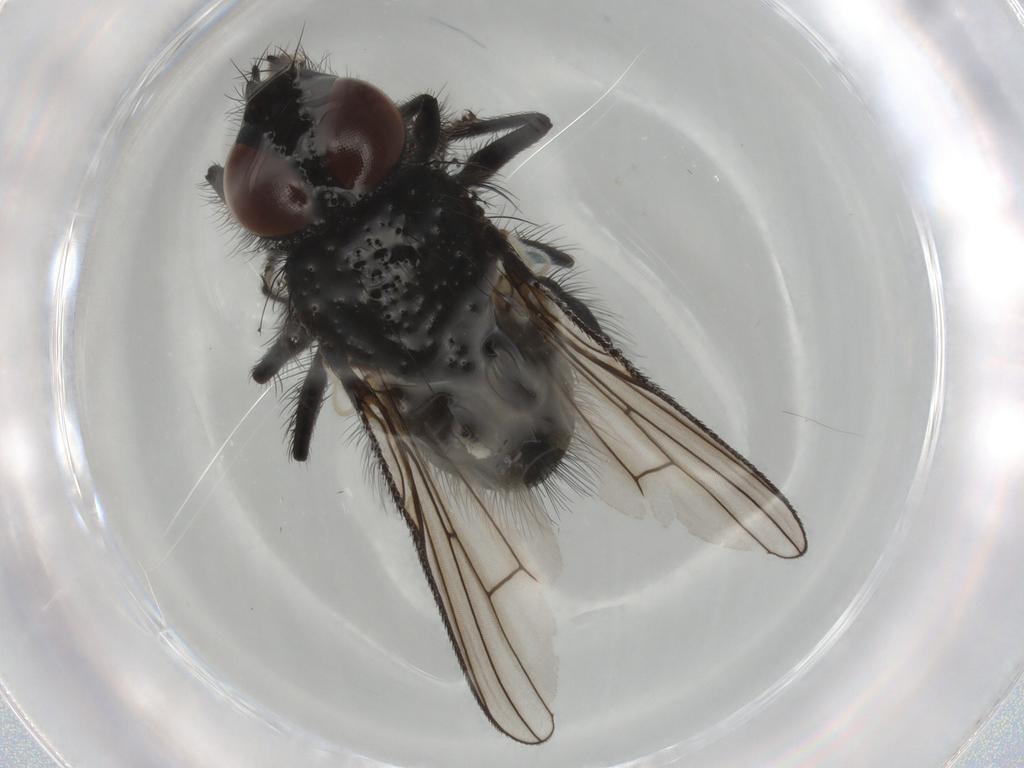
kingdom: Animalia
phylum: Arthropoda
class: Insecta
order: Diptera
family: Muscidae
